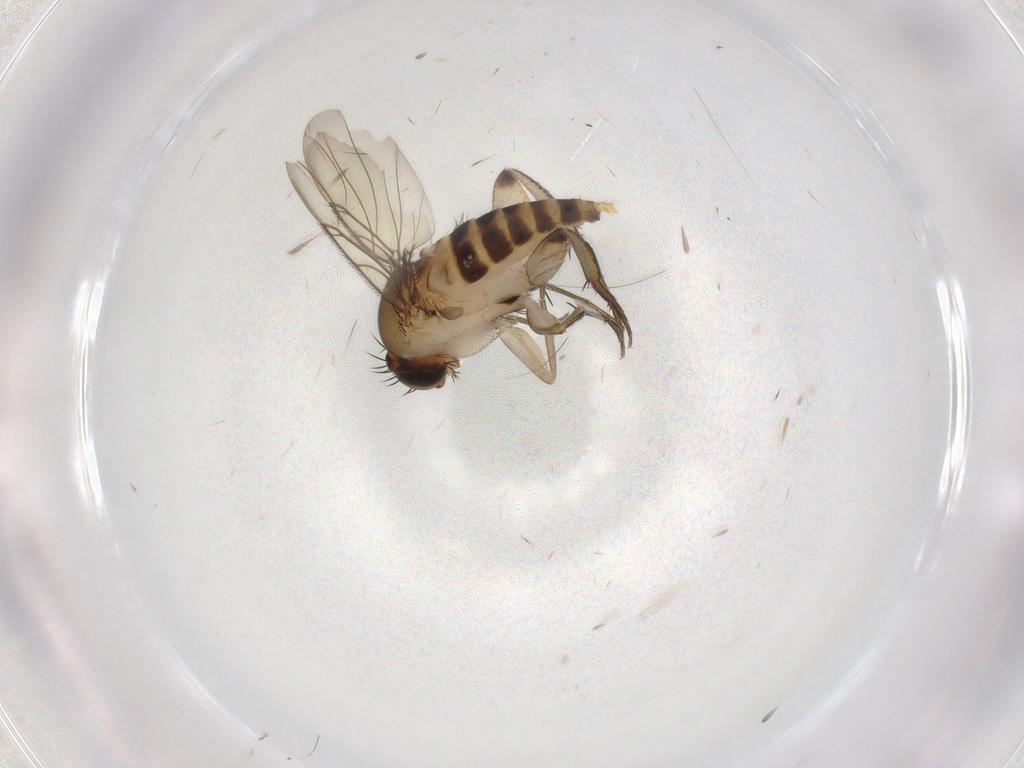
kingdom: Animalia
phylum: Arthropoda
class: Insecta
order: Diptera
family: Phoridae
